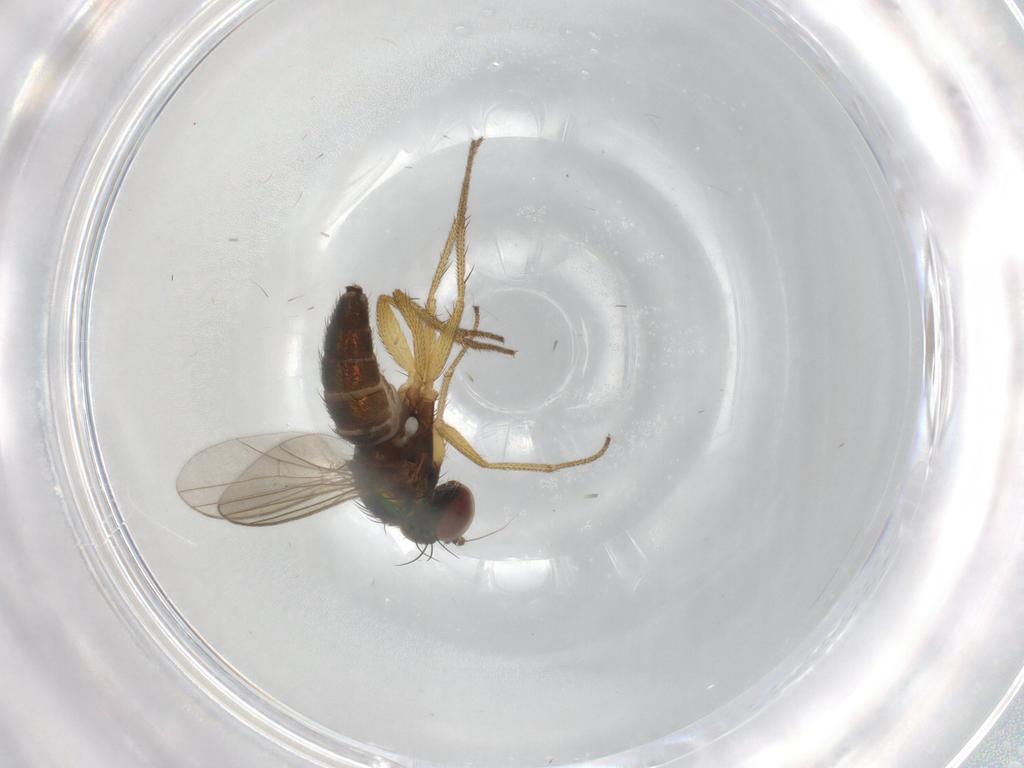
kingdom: Animalia
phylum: Arthropoda
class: Insecta
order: Diptera
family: Dolichopodidae
